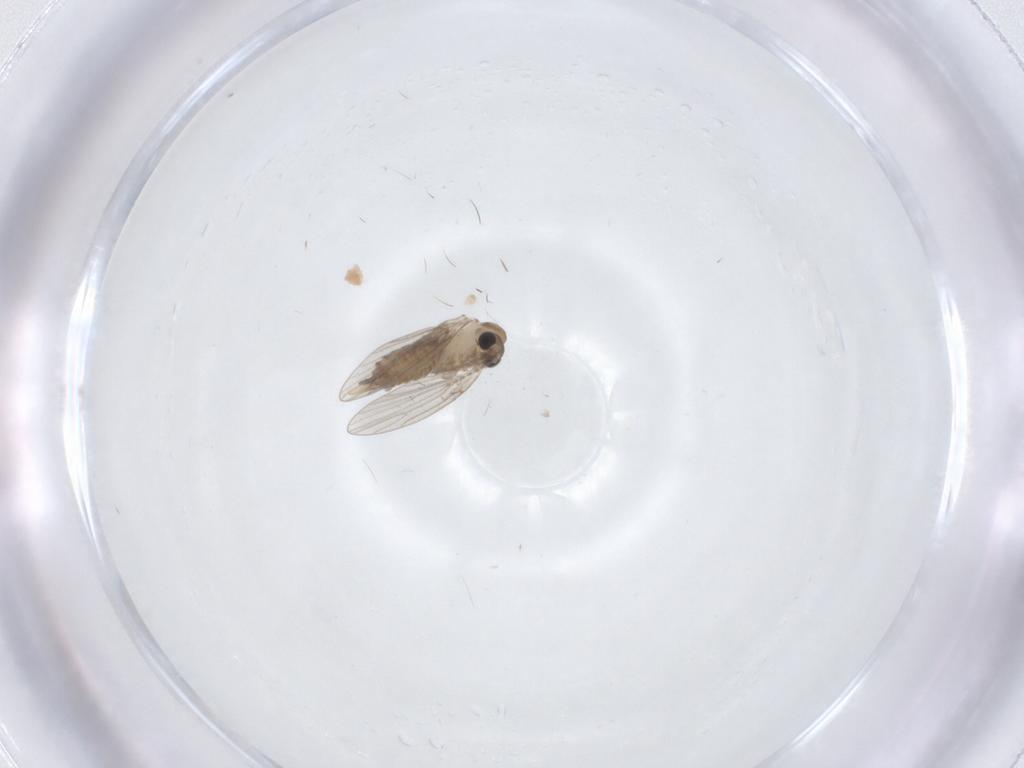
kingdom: Animalia
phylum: Arthropoda
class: Insecta
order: Diptera
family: Chironomidae
